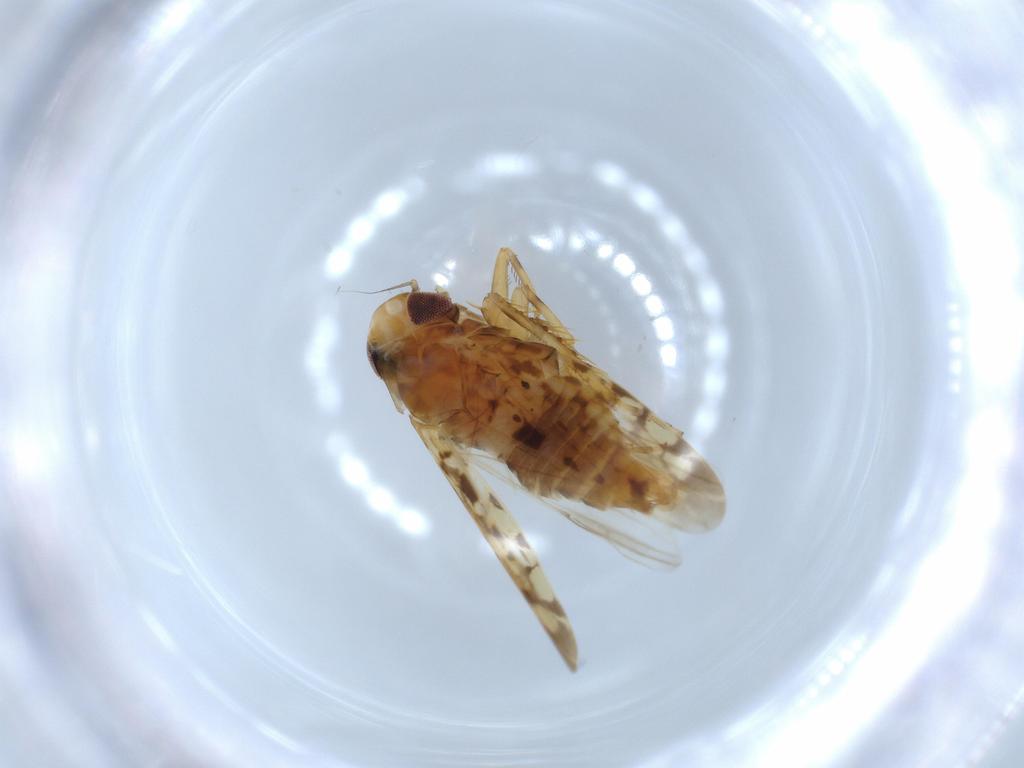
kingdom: Animalia
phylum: Arthropoda
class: Insecta
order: Hemiptera
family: Cicadellidae
